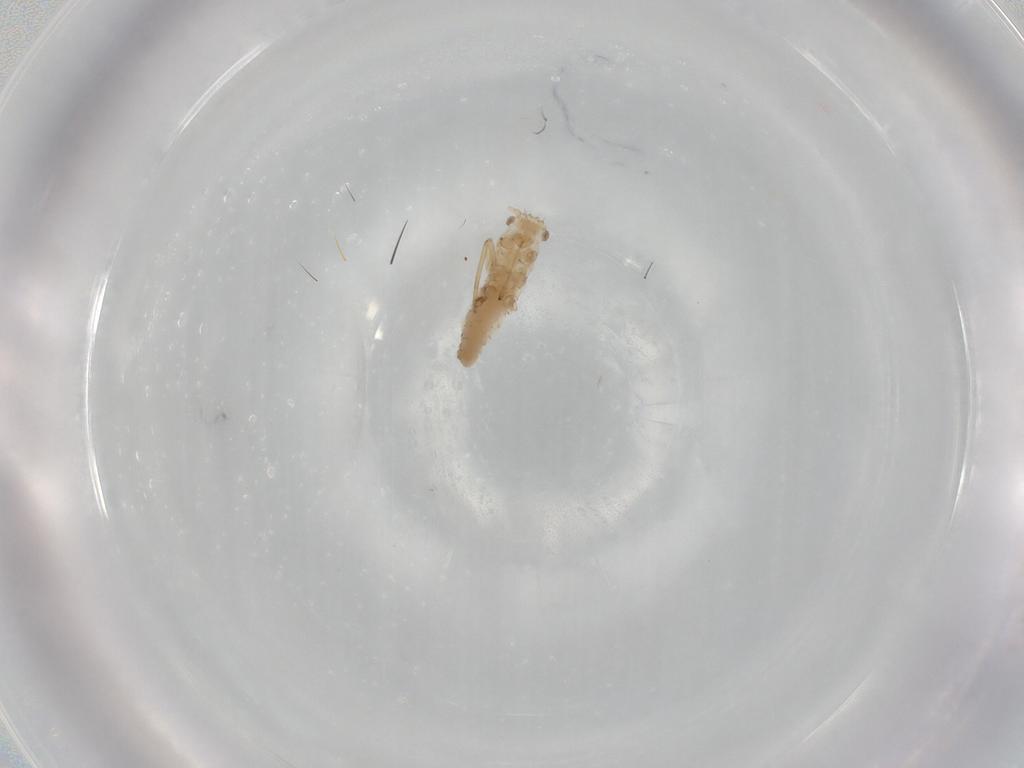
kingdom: Animalia
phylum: Arthropoda
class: Insecta
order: Hemiptera
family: Aphididae
